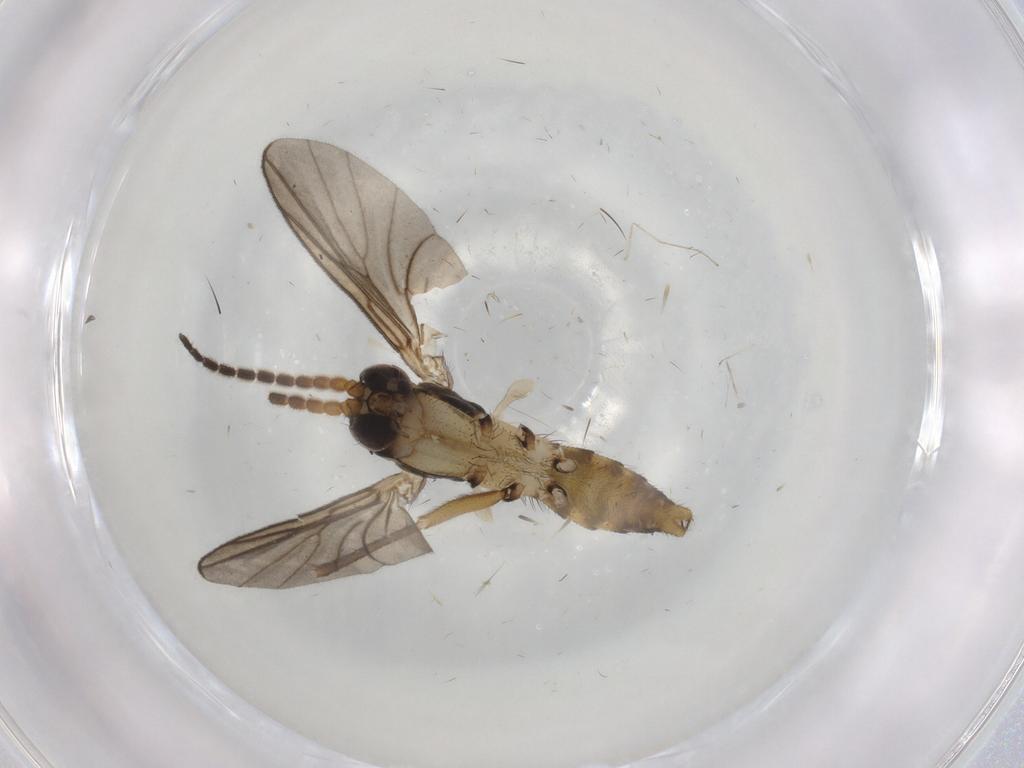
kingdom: Animalia
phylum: Arthropoda
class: Insecta
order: Diptera
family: Mycetophilidae
